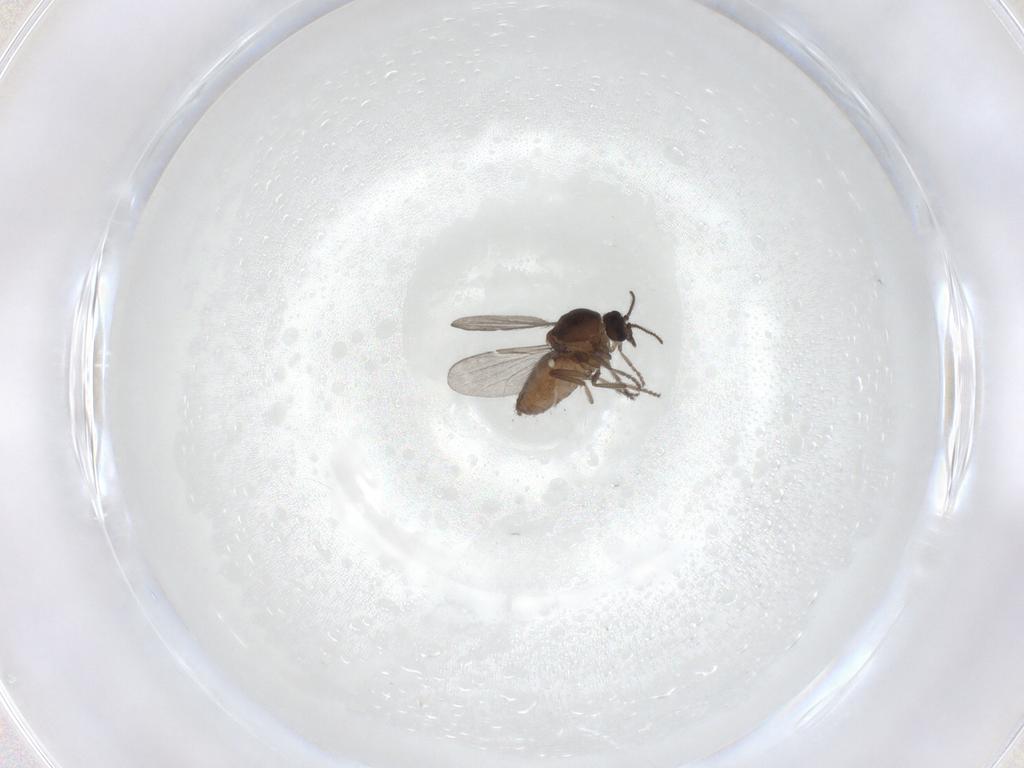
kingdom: Animalia
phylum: Arthropoda
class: Insecta
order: Diptera
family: Ceratopogonidae
